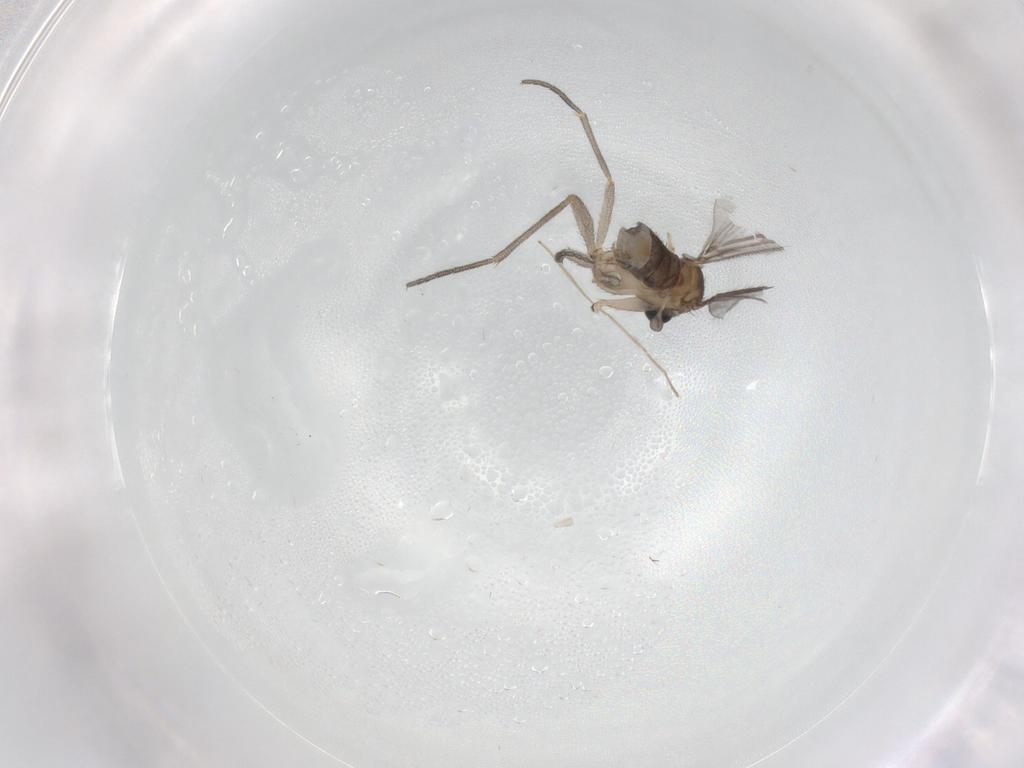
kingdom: Animalia
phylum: Arthropoda
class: Insecta
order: Diptera
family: Sciaridae
